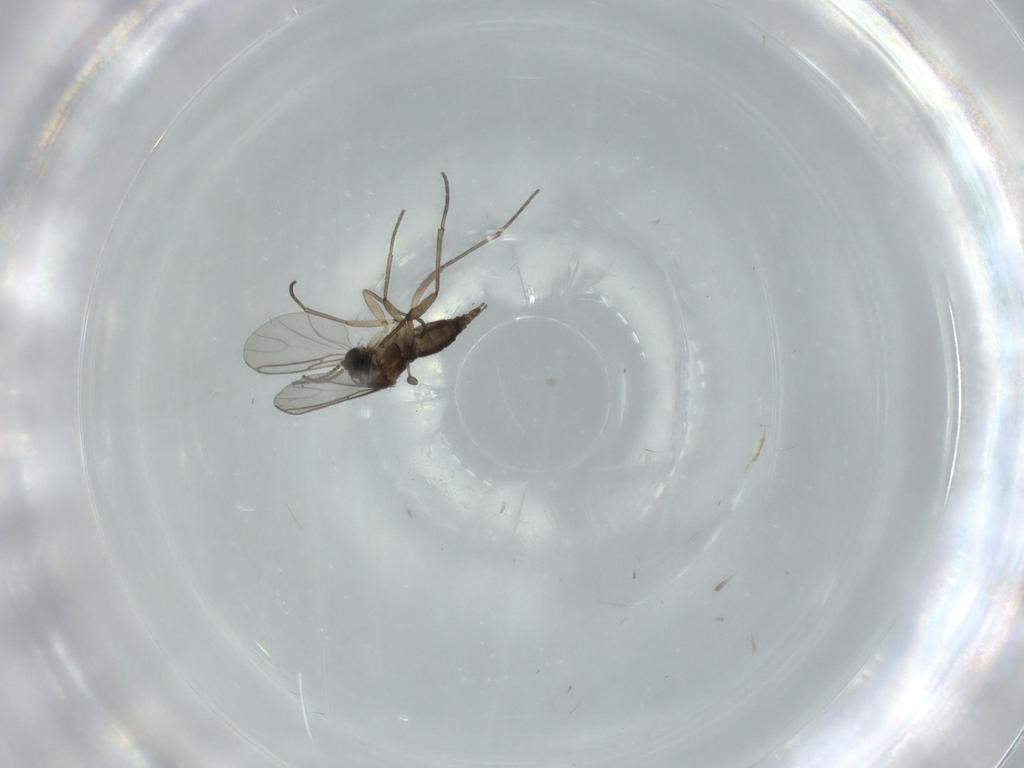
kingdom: Animalia
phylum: Arthropoda
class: Insecta
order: Diptera
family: Sciaridae
